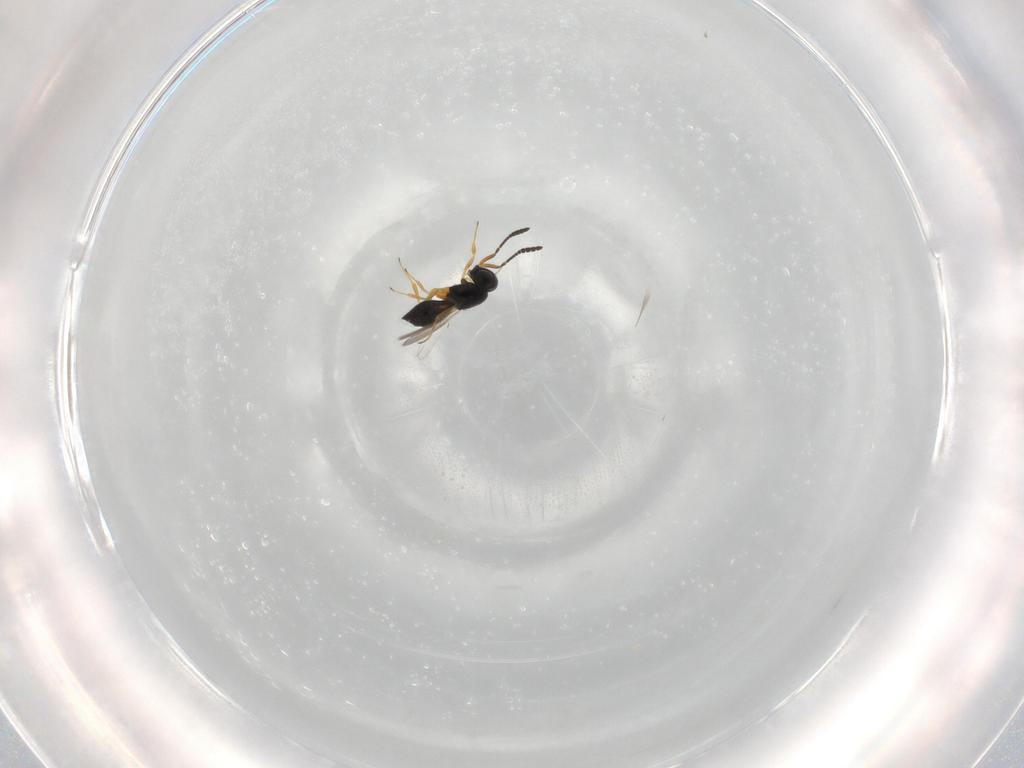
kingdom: Animalia
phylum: Arthropoda
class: Insecta
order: Hymenoptera
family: Scelionidae
